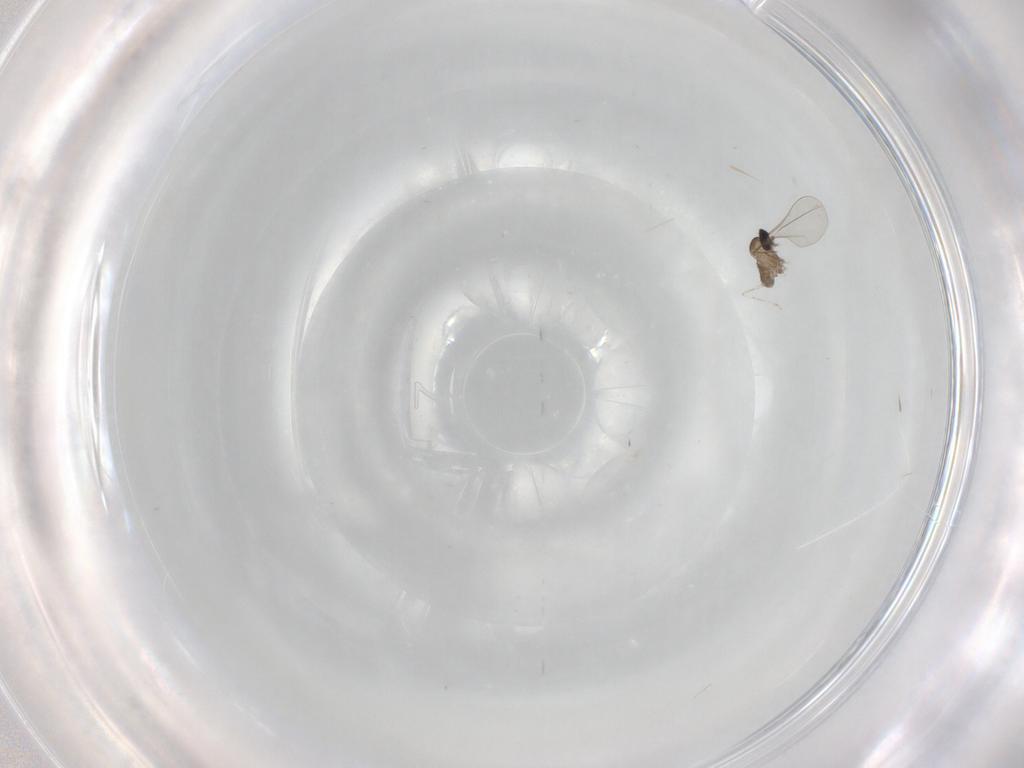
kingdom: Animalia
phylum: Arthropoda
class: Insecta
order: Diptera
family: Cecidomyiidae
